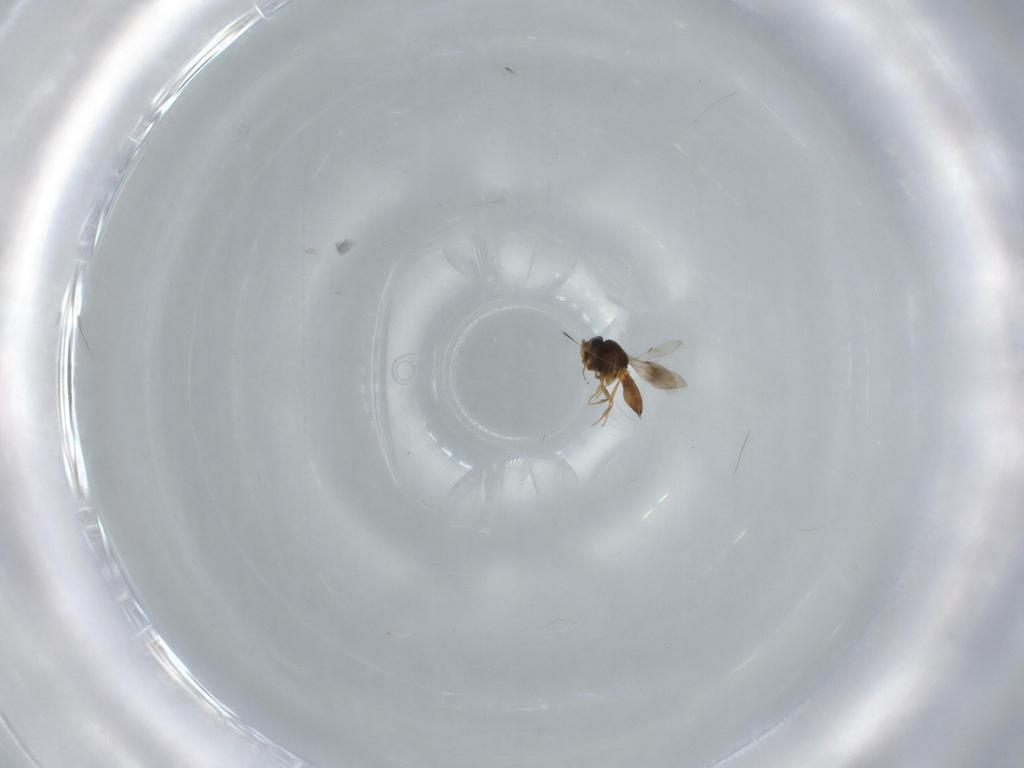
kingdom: Animalia
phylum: Arthropoda
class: Insecta
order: Hymenoptera
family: Scelionidae
